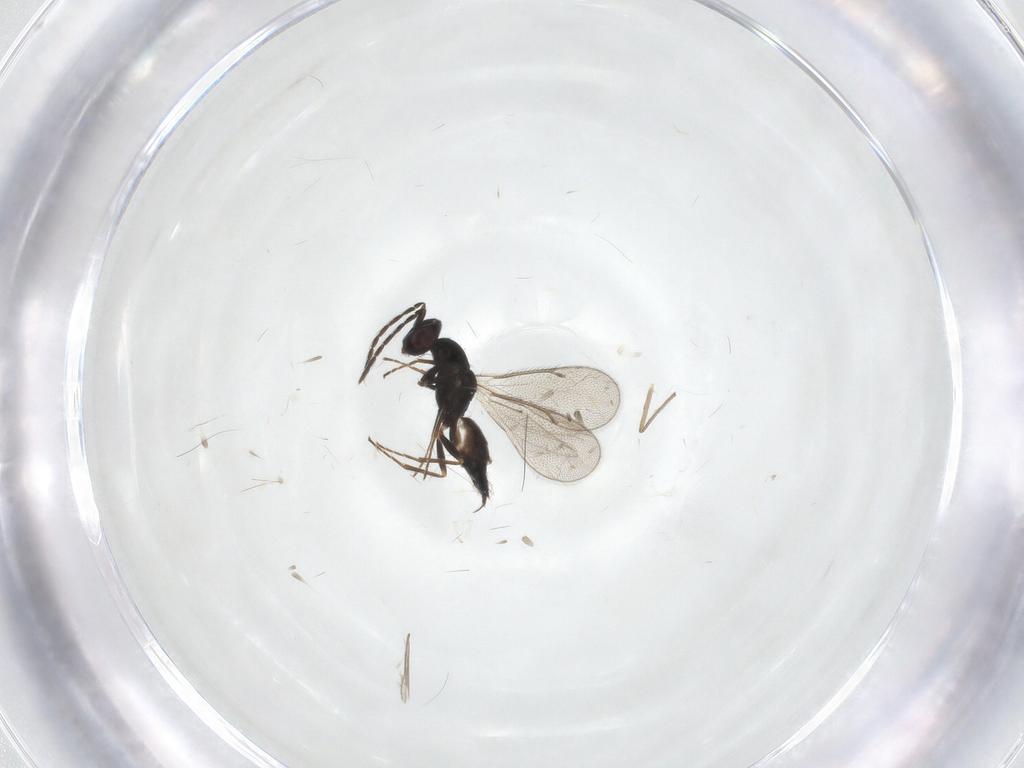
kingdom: Animalia
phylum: Arthropoda
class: Insecta
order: Hymenoptera
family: Eulophidae
